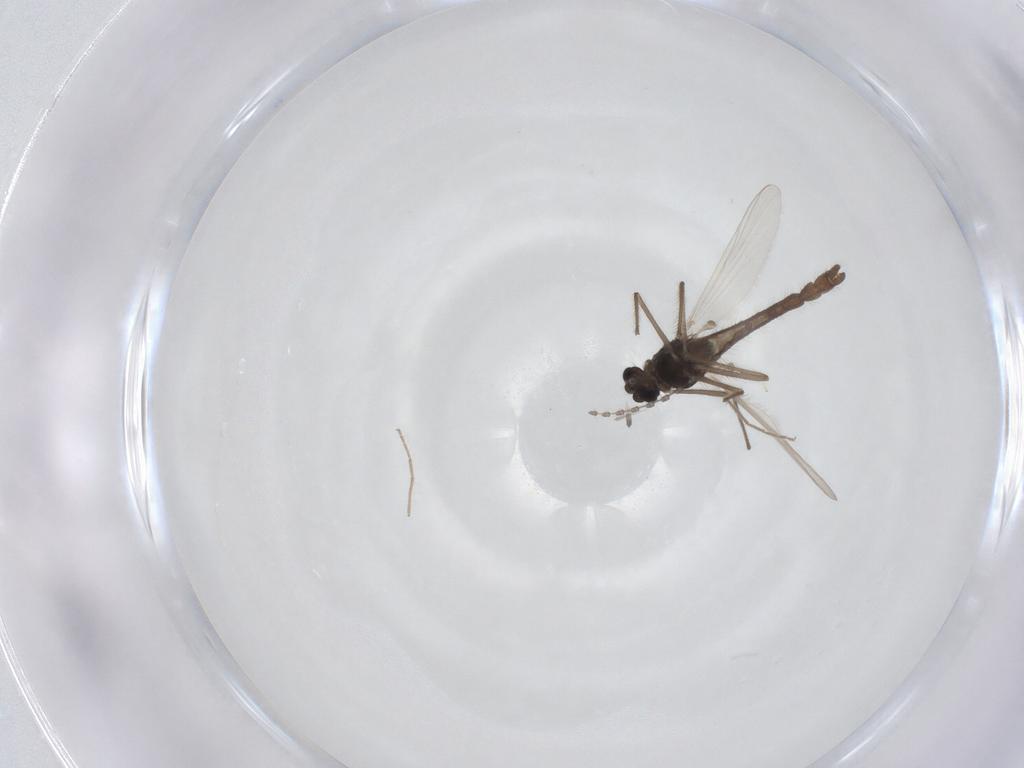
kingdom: Animalia
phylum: Arthropoda
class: Insecta
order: Diptera
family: Chironomidae
